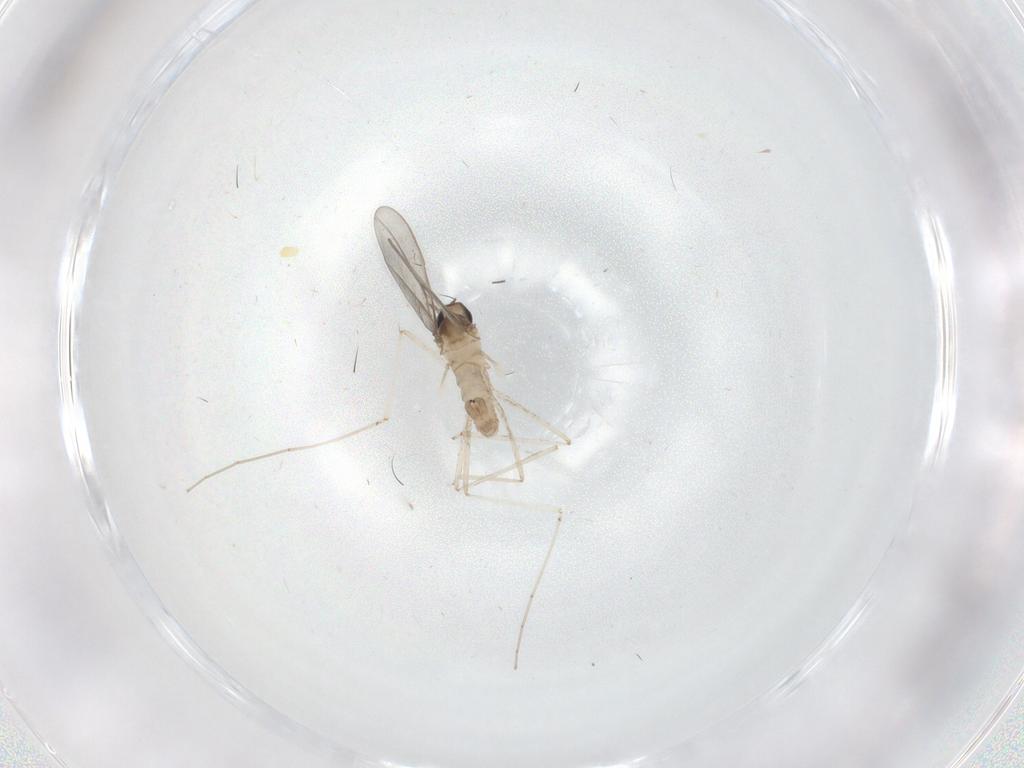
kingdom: Animalia
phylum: Arthropoda
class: Insecta
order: Diptera
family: Cecidomyiidae
